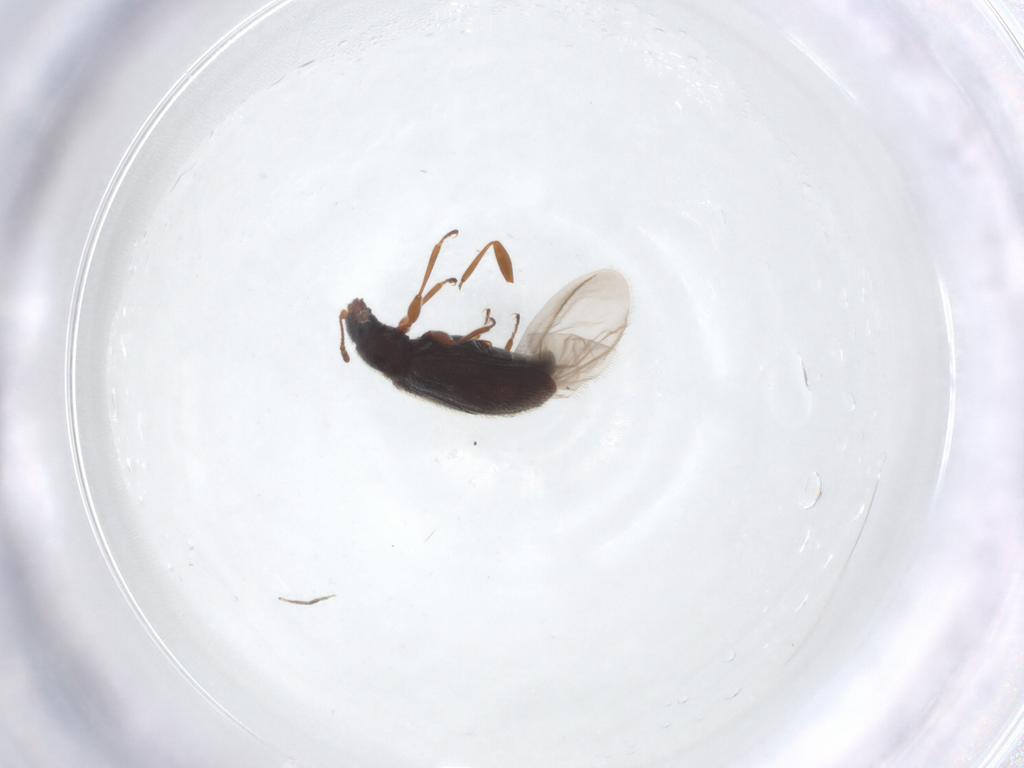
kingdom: Animalia
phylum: Arthropoda
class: Insecta
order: Coleoptera
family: Latridiidae
